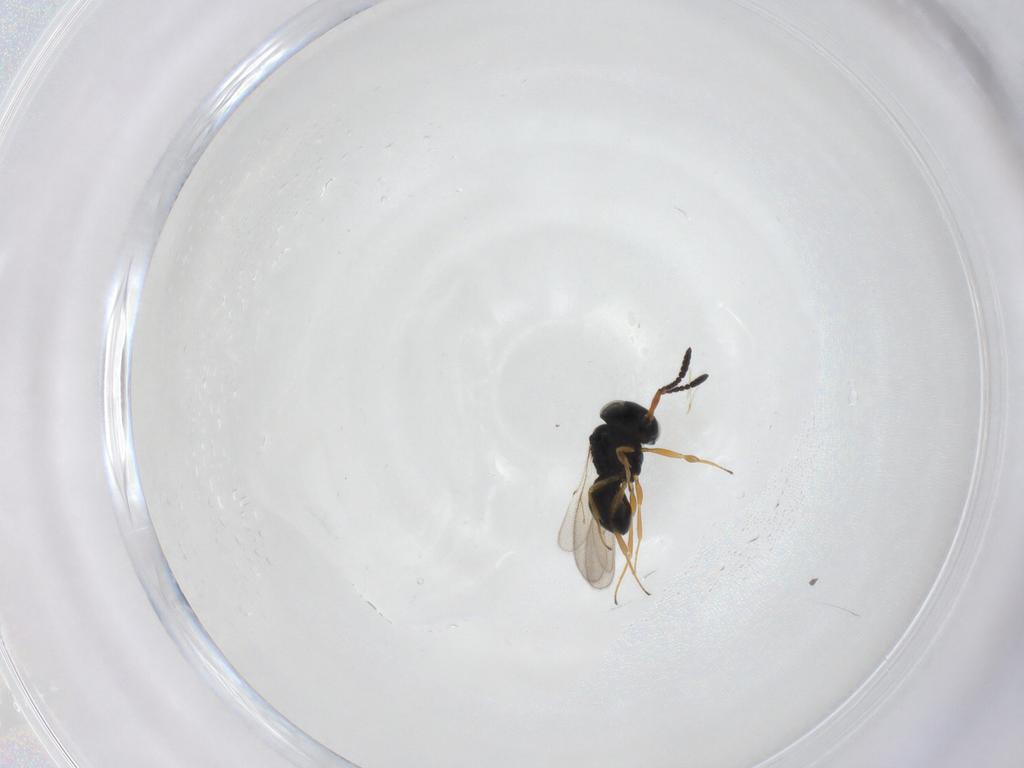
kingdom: Animalia
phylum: Arthropoda
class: Insecta
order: Hymenoptera
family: Scelionidae
